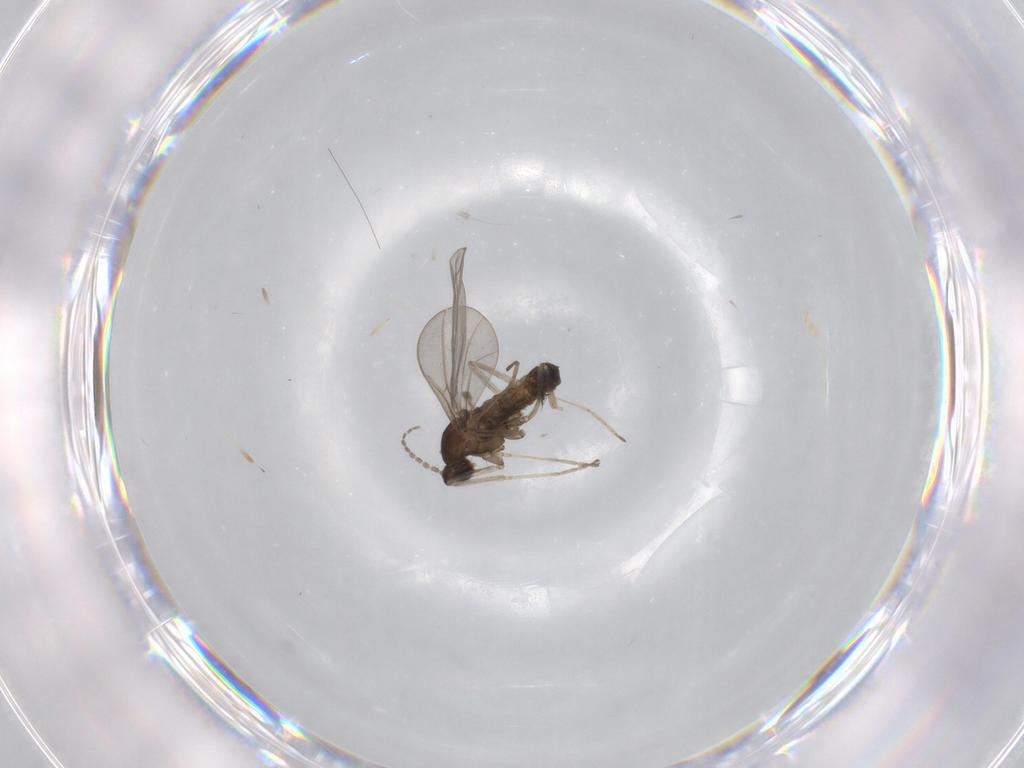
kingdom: Animalia
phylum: Arthropoda
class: Insecta
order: Diptera
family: Cecidomyiidae
